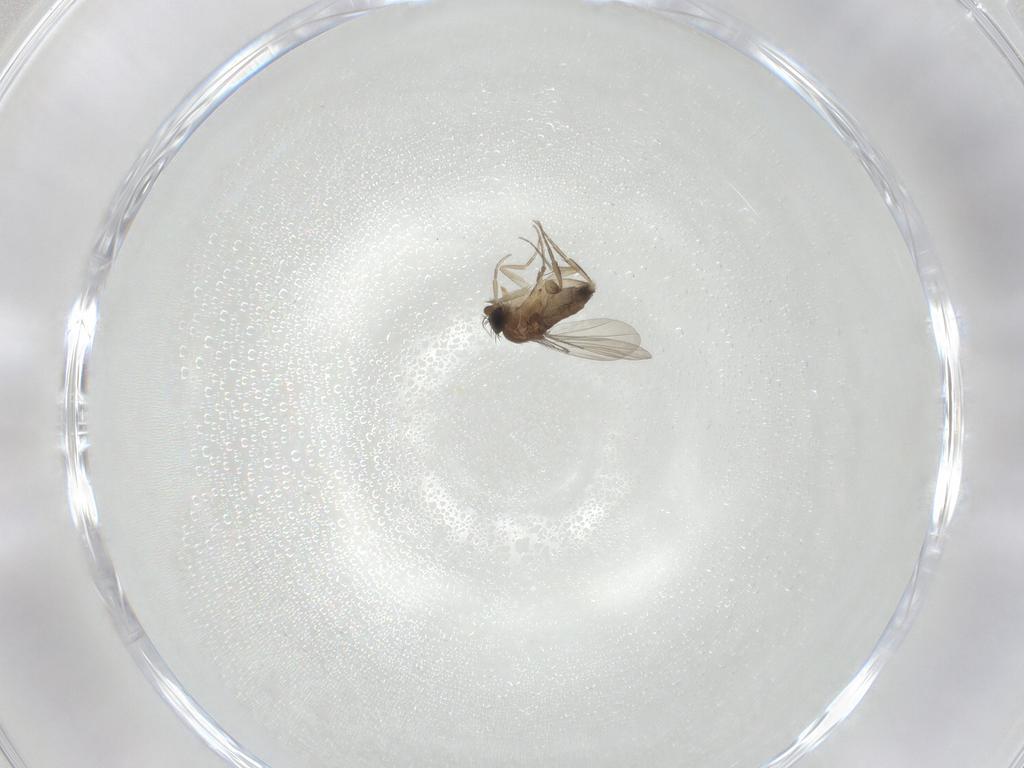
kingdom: Animalia
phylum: Arthropoda
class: Insecta
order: Diptera
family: Phoridae
